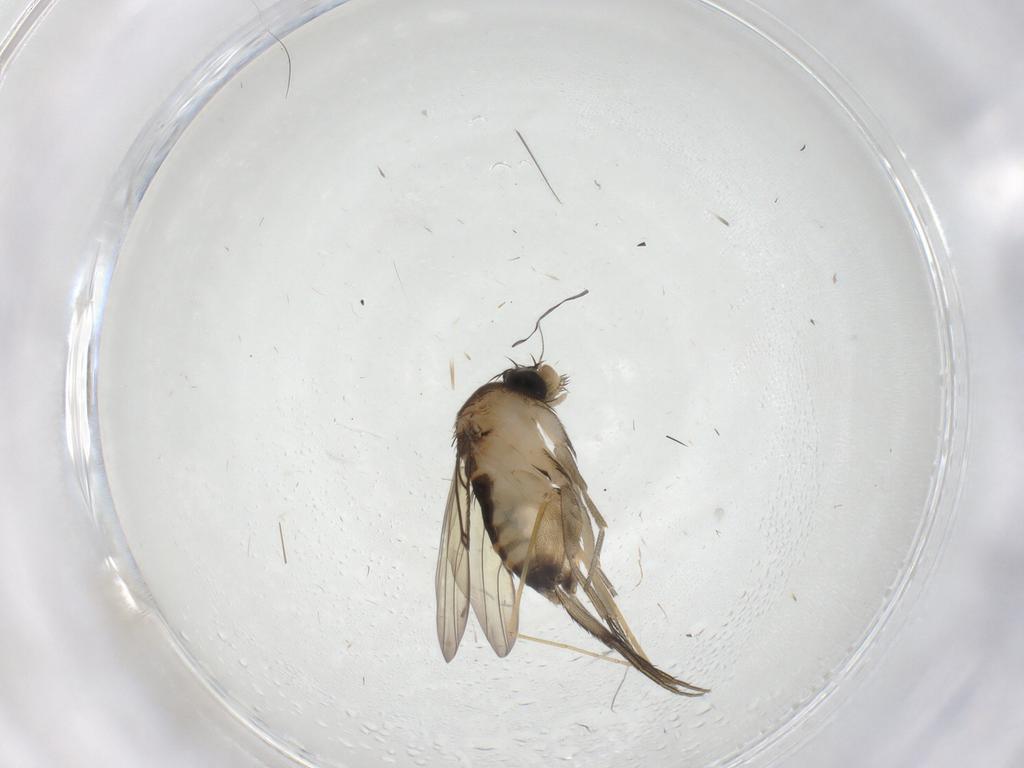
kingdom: Animalia
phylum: Arthropoda
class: Insecta
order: Diptera
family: Phoridae
